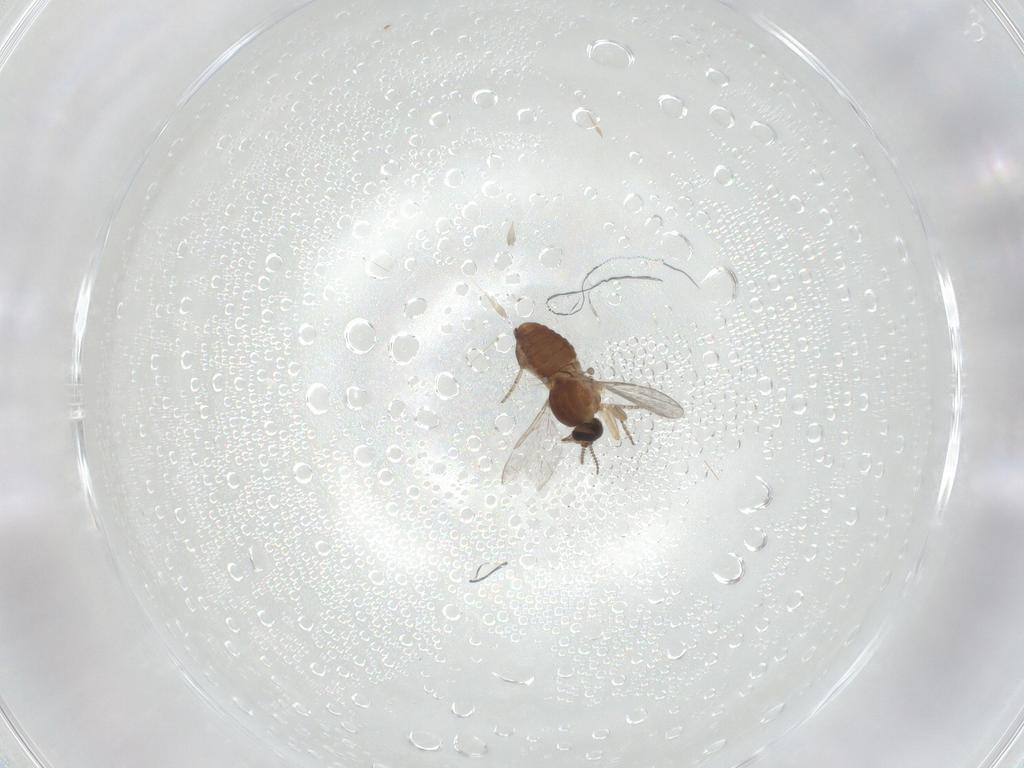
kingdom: Animalia
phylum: Arthropoda
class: Insecta
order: Diptera
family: Ceratopogonidae
